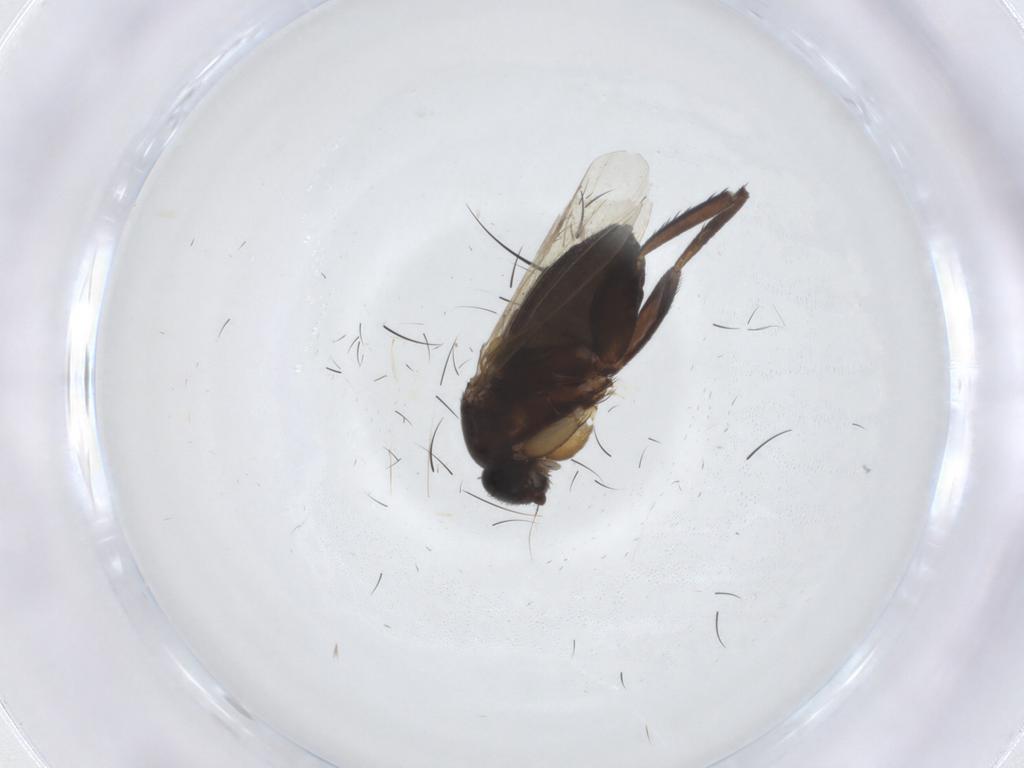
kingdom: Animalia
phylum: Arthropoda
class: Insecta
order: Diptera
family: Phoridae
